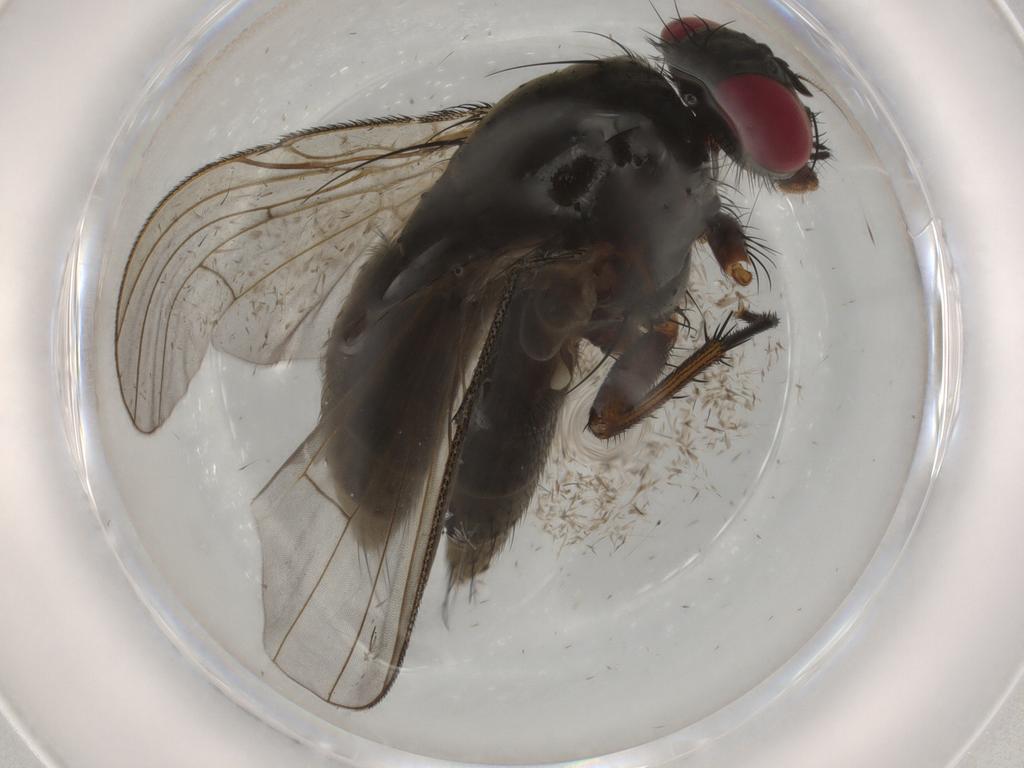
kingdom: Animalia
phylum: Arthropoda
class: Insecta
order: Diptera
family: Muscidae
